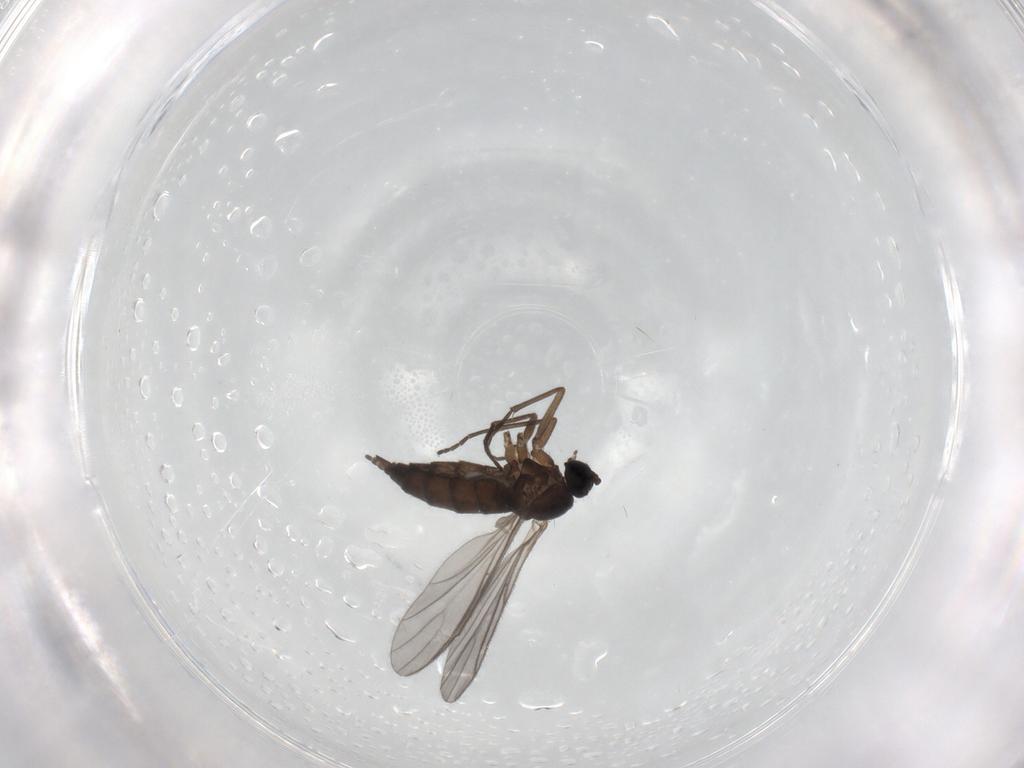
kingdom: Animalia
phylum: Arthropoda
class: Insecta
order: Diptera
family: Sciaridae
